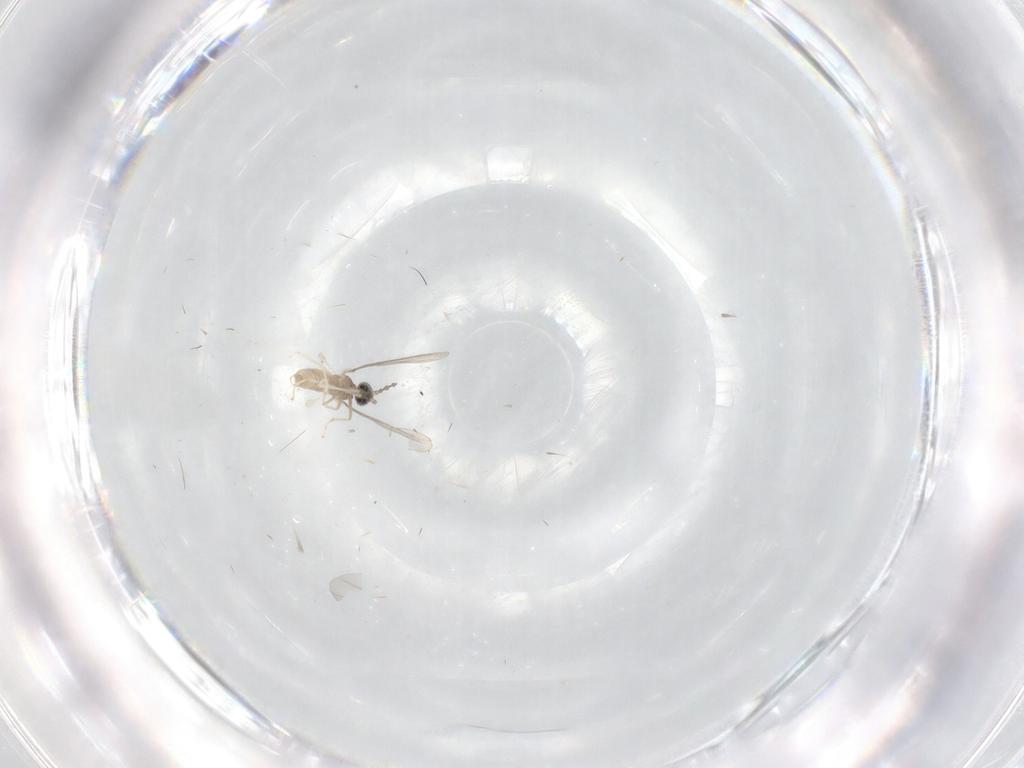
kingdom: Animalia
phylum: Arthropoda
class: Insecta
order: Diptera
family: Cecidomyiidae
